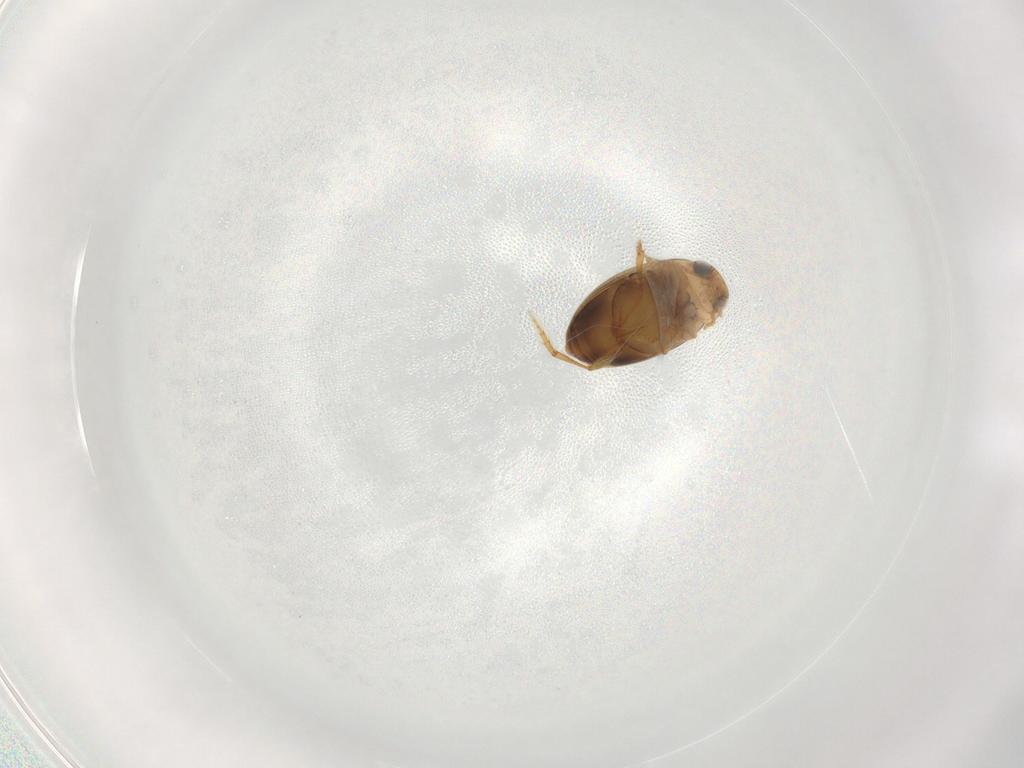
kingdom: Animalia
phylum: Arthropoda
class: Insecta
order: Coleoptera
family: Dytiscidae
